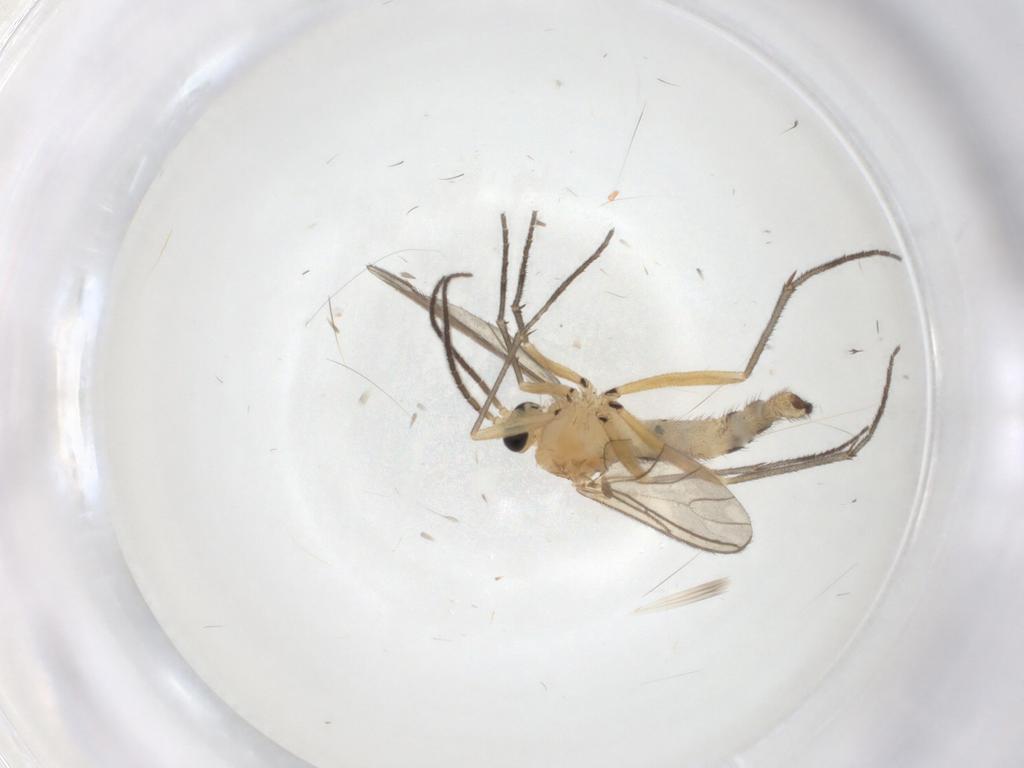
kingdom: Animalia
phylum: Arthropoda
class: Insecta
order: Diptera
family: Sciaridae
